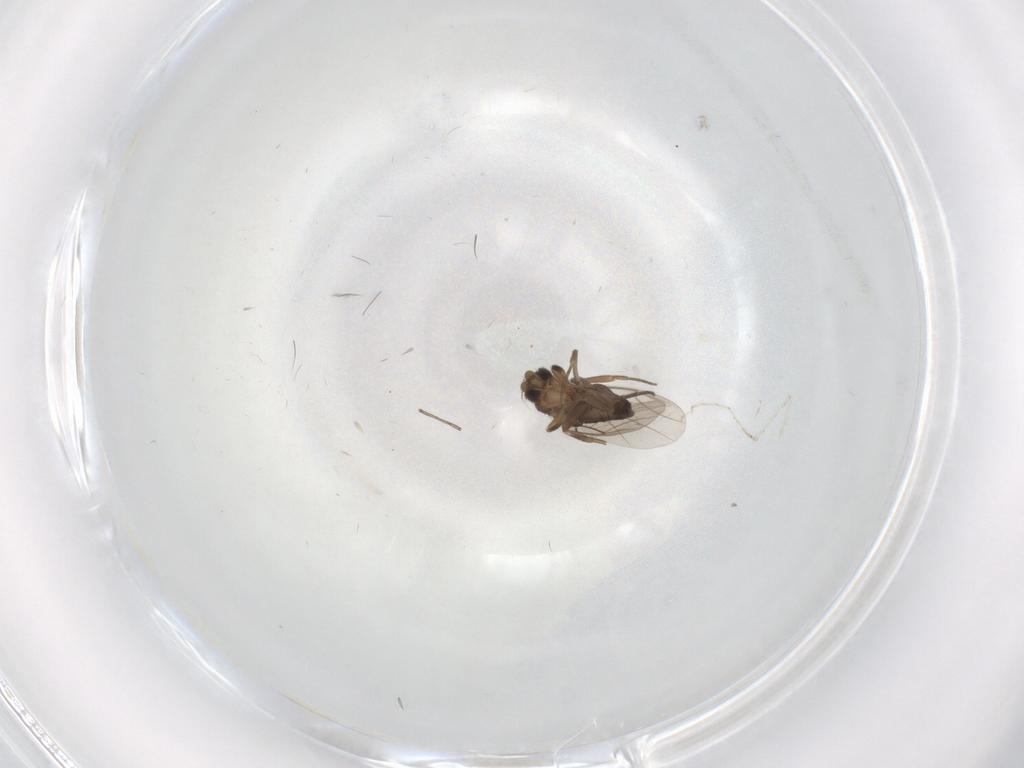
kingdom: Animalia
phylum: Arthropoda
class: Insecta
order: Diptera
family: Phoridae
